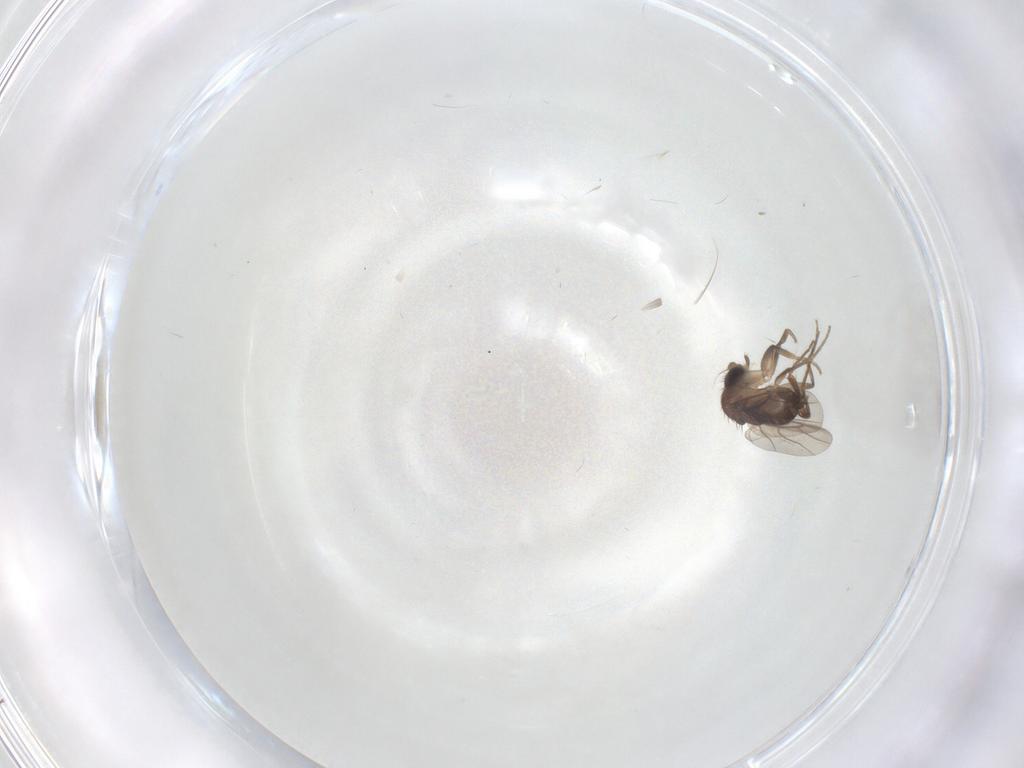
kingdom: Animalia
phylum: Arthropoda
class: Insecta
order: Diptera
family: Phoridae
